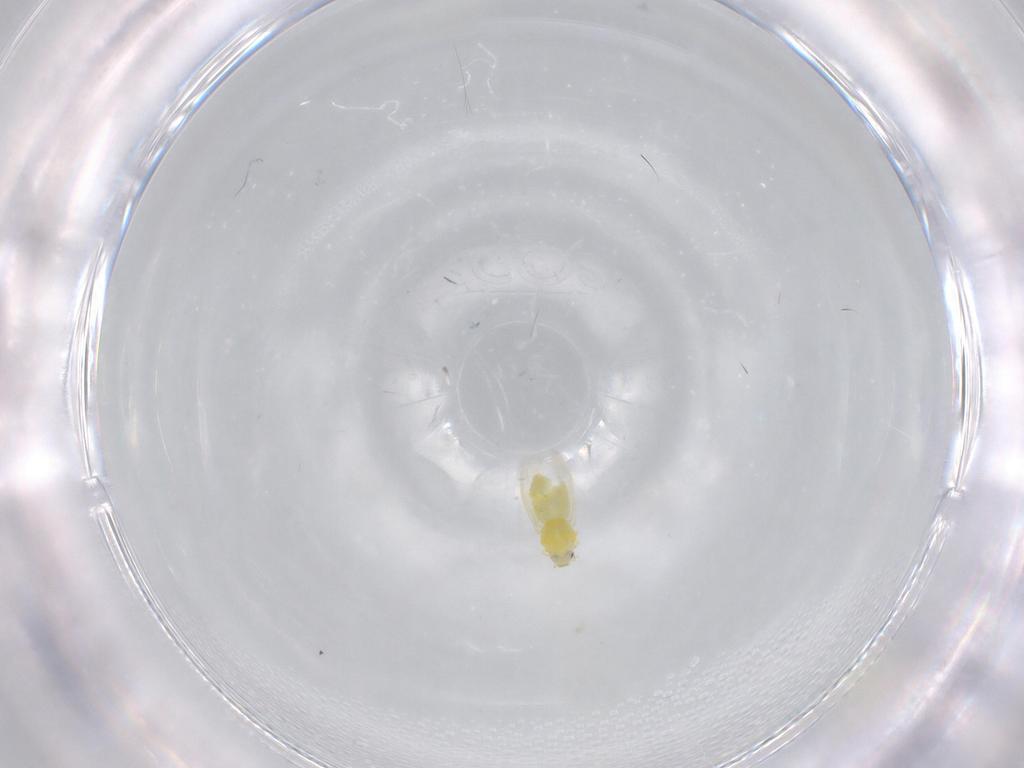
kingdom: Animalia
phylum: Arthropoda
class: Insecta
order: Hemiptera
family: Aleyrodidae
